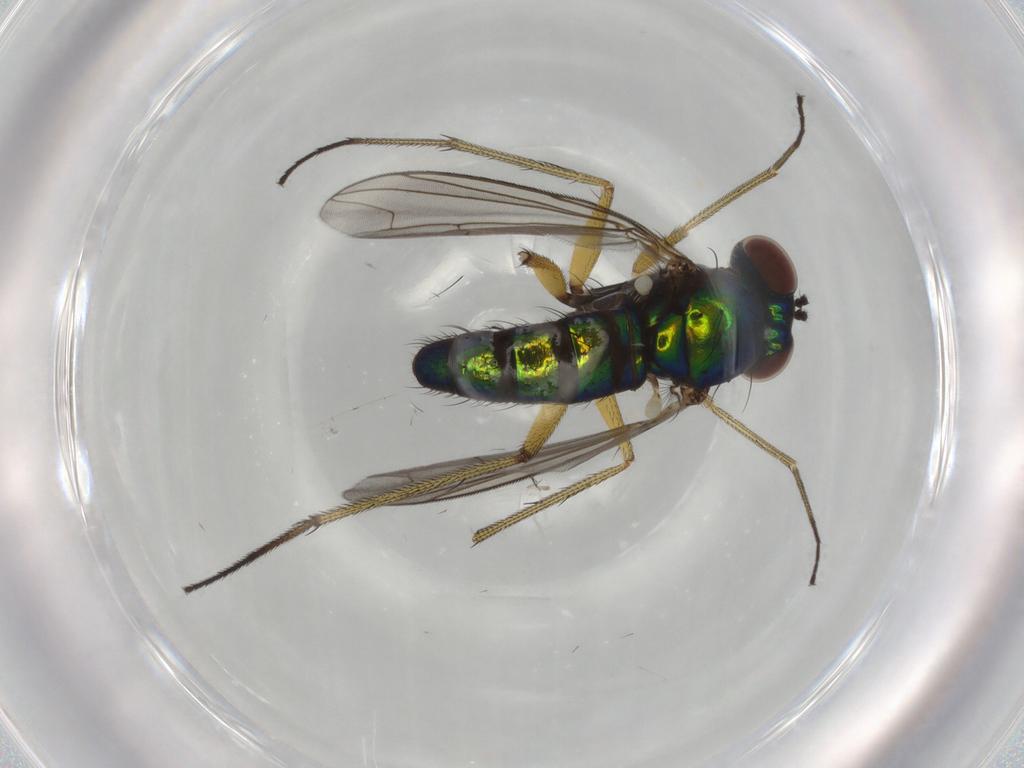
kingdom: Animalia
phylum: Arthropoda
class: Insecta
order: Diptera
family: Dolichopodidae
